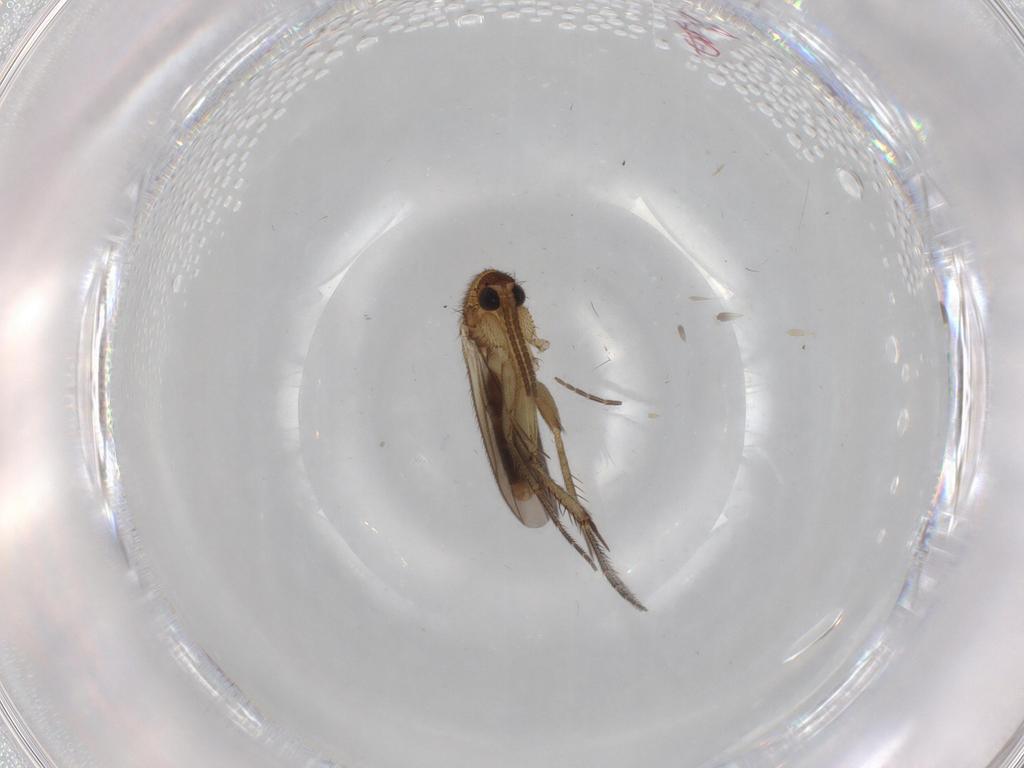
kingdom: Animalia
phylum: Arthropoda
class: Insecta
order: Diptera
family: Mycetophilidae
